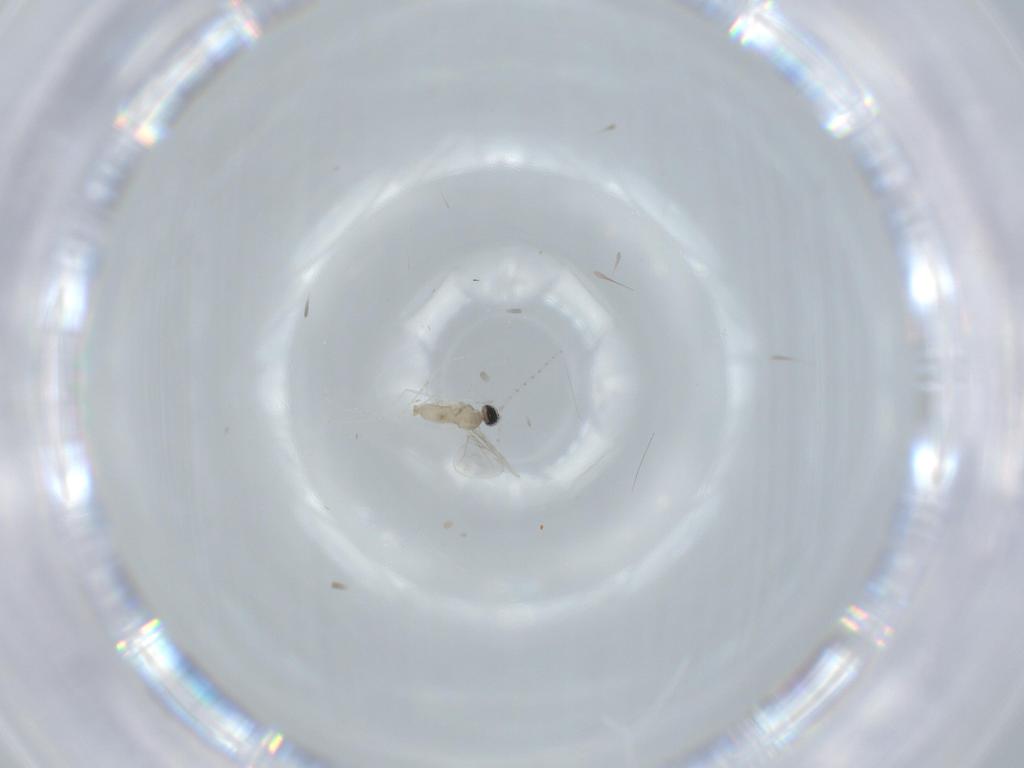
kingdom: Animalia
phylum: Arthropoda
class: Insecta
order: Diptera
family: Cecidomyiidae
